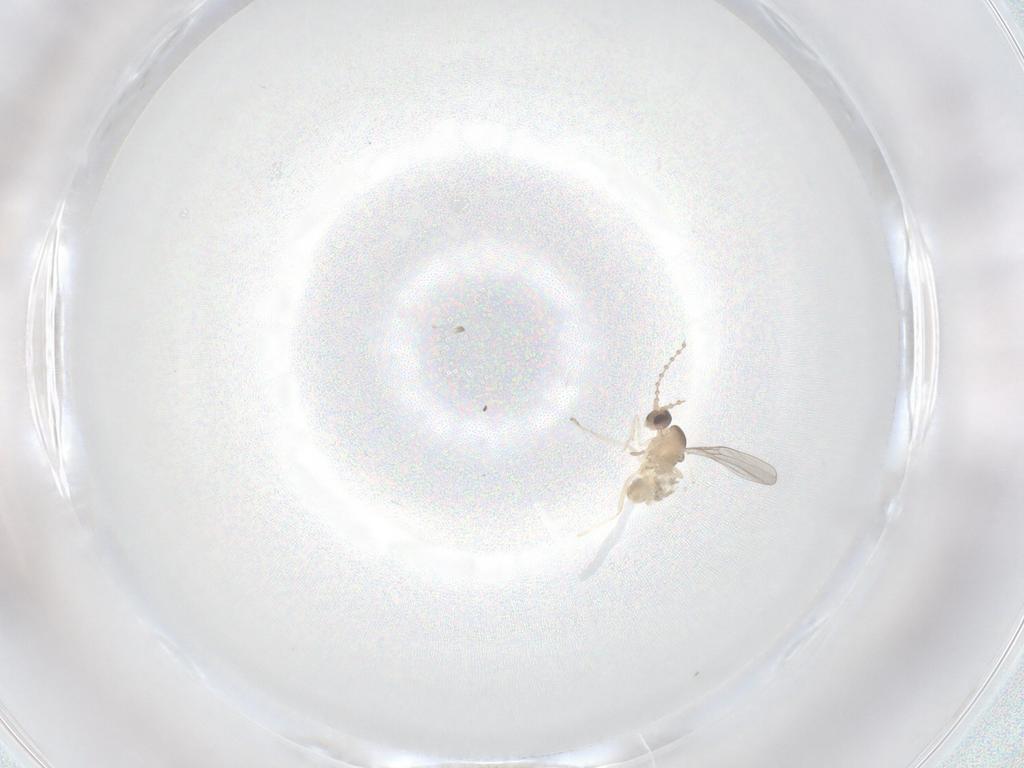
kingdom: Animalia
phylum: Arthropoda
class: Insecta
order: Diptera
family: Cecidomyiidae
